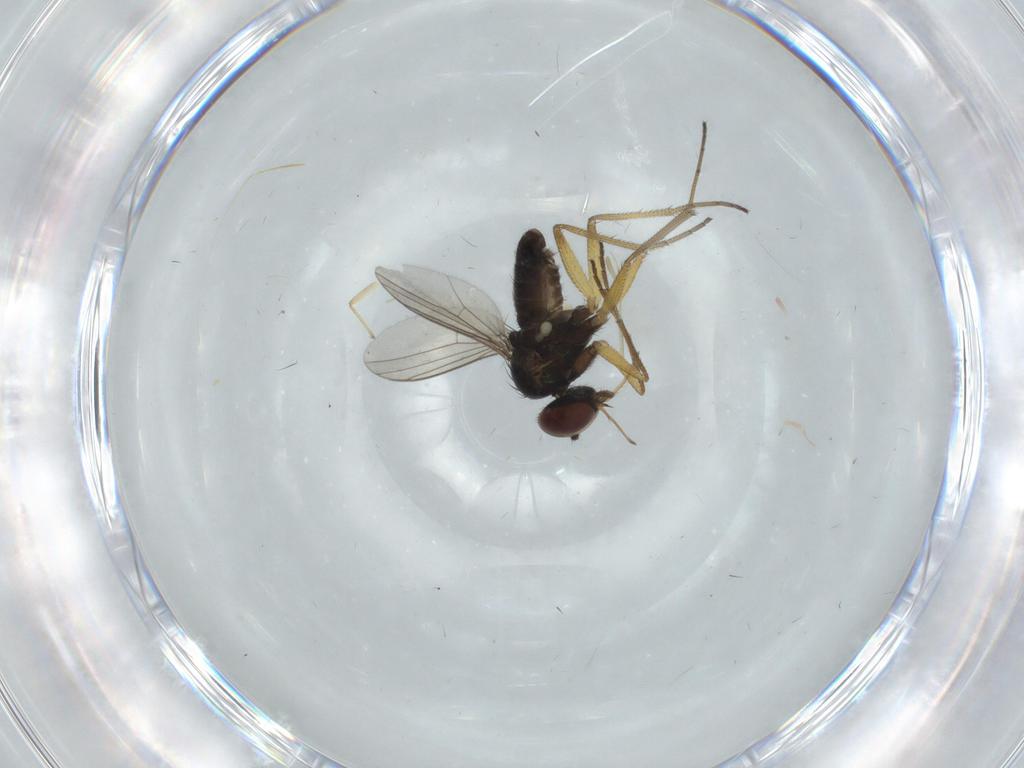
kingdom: Animalia
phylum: Arthropoda
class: Insecta
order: Diptera
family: Dolichopodidae
